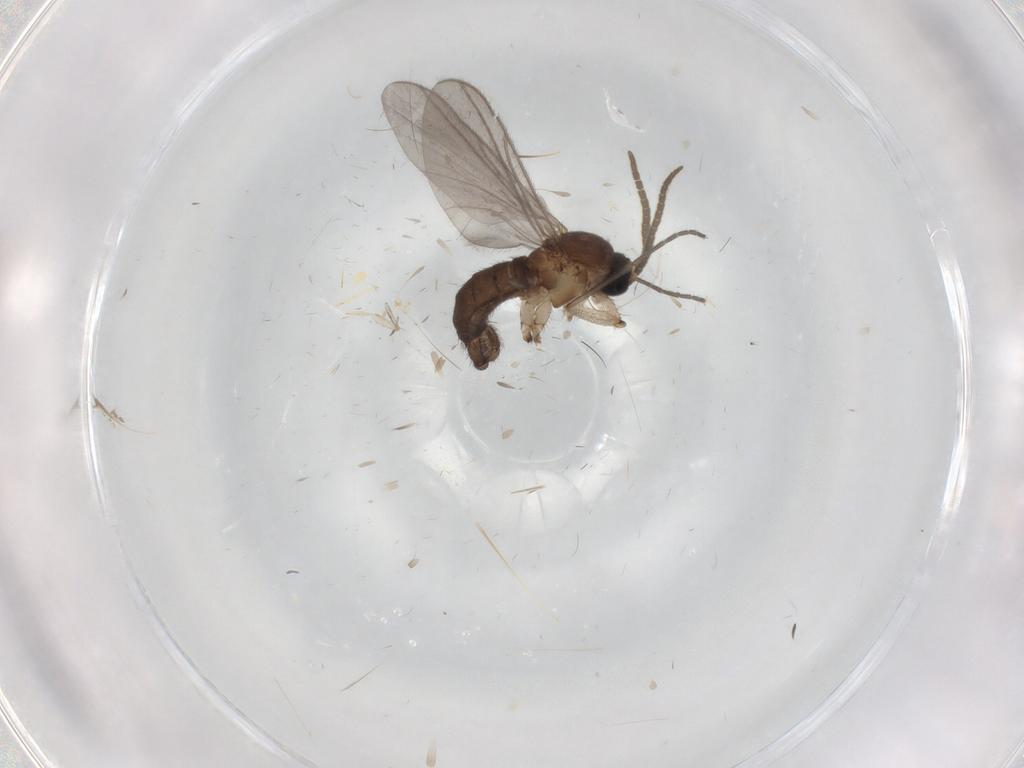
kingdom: Animalia
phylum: Arthropoda
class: Insecta
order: Diptera
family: Chironomidae
